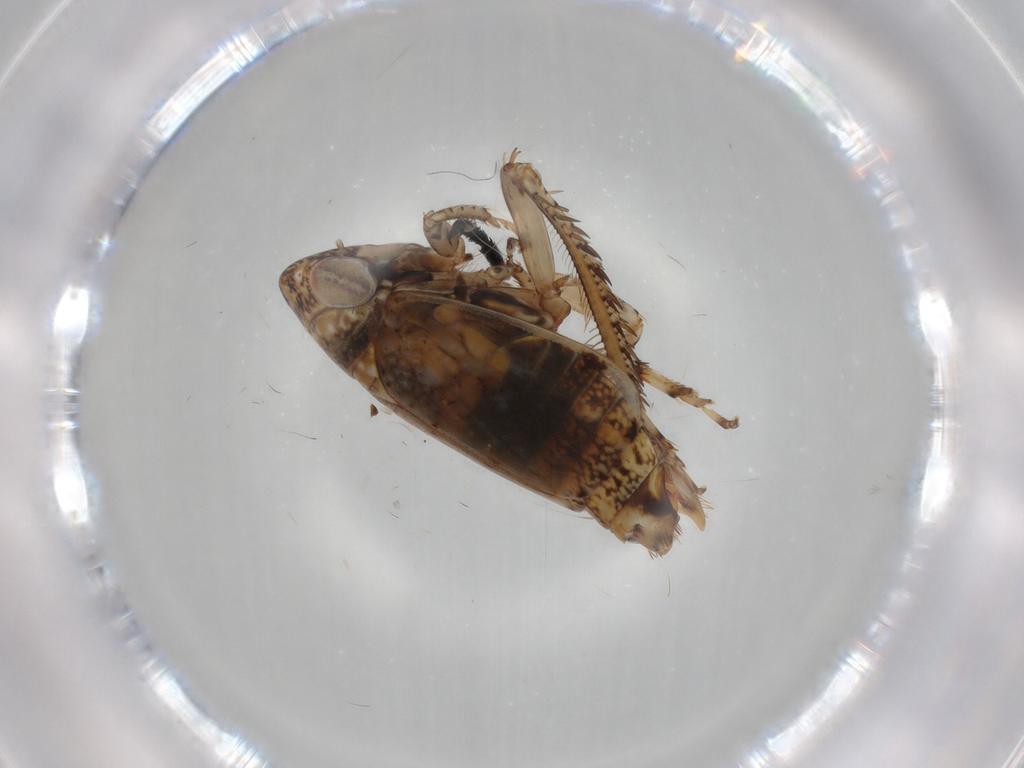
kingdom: Animalia
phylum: Arthropoda
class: Insecta
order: Hemiptera
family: Cicadellidae
